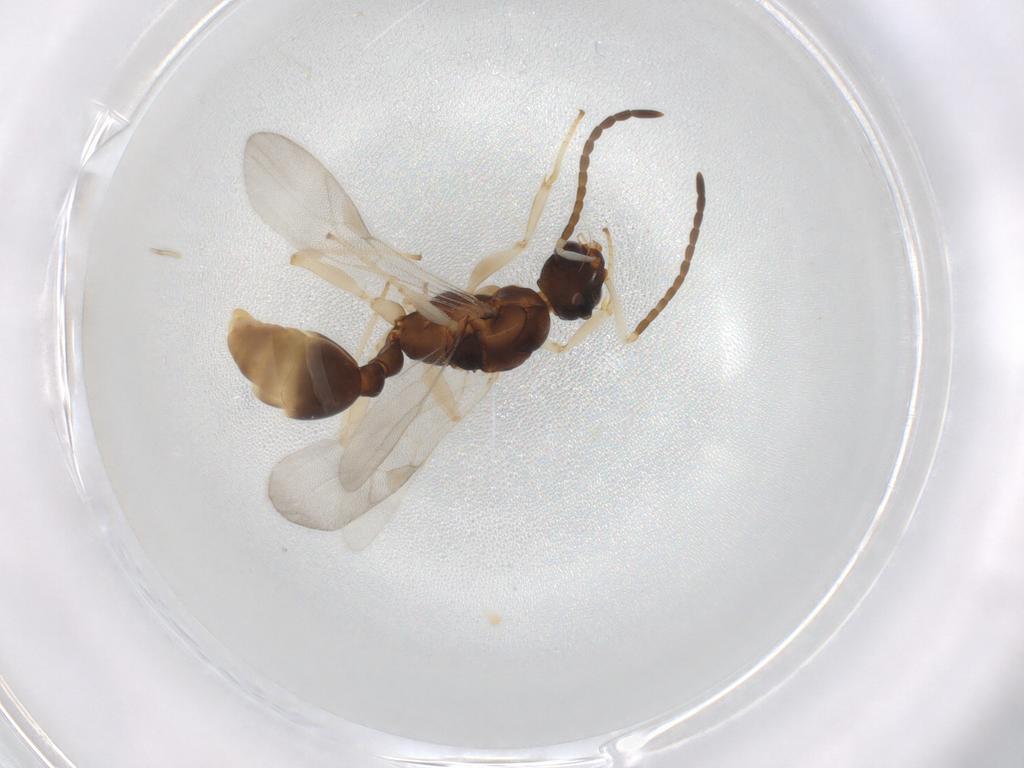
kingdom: Animalia
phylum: Arthropoda
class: Insecta
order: Hymenoptera
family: Formicidae
